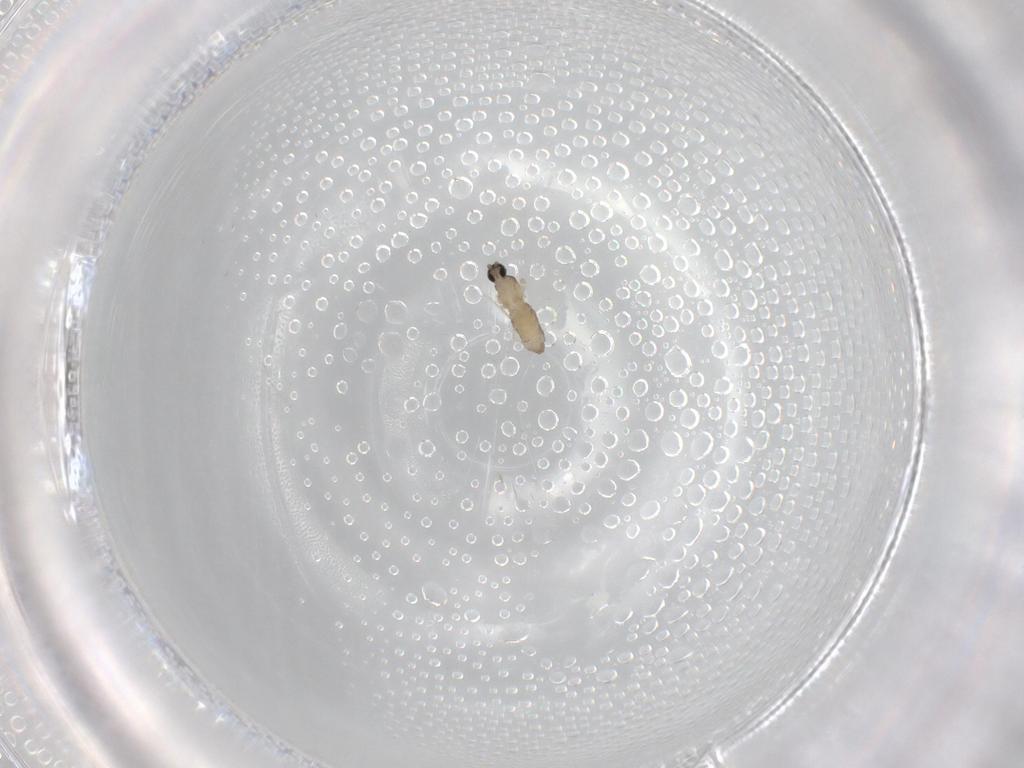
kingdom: Animalia
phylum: Arthropoda
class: Insecta
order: Diptera
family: Cecidomyiidae
